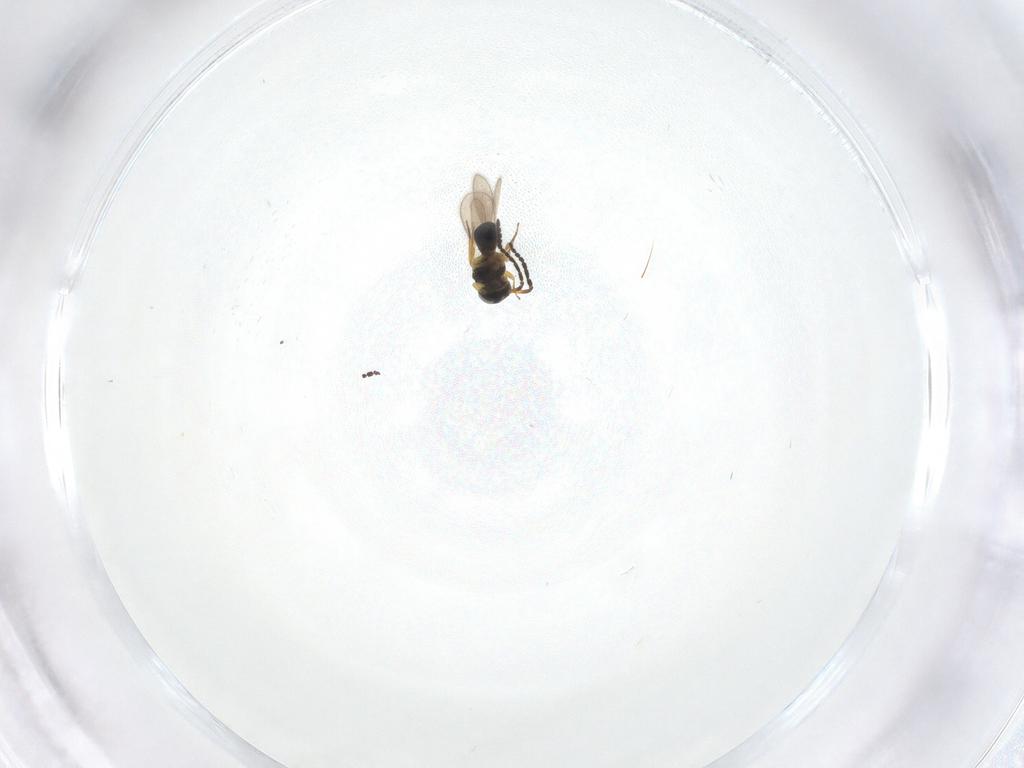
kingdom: Animalia
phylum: Arthropoda
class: Insecta
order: Hymenoptera
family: Scelionidae
